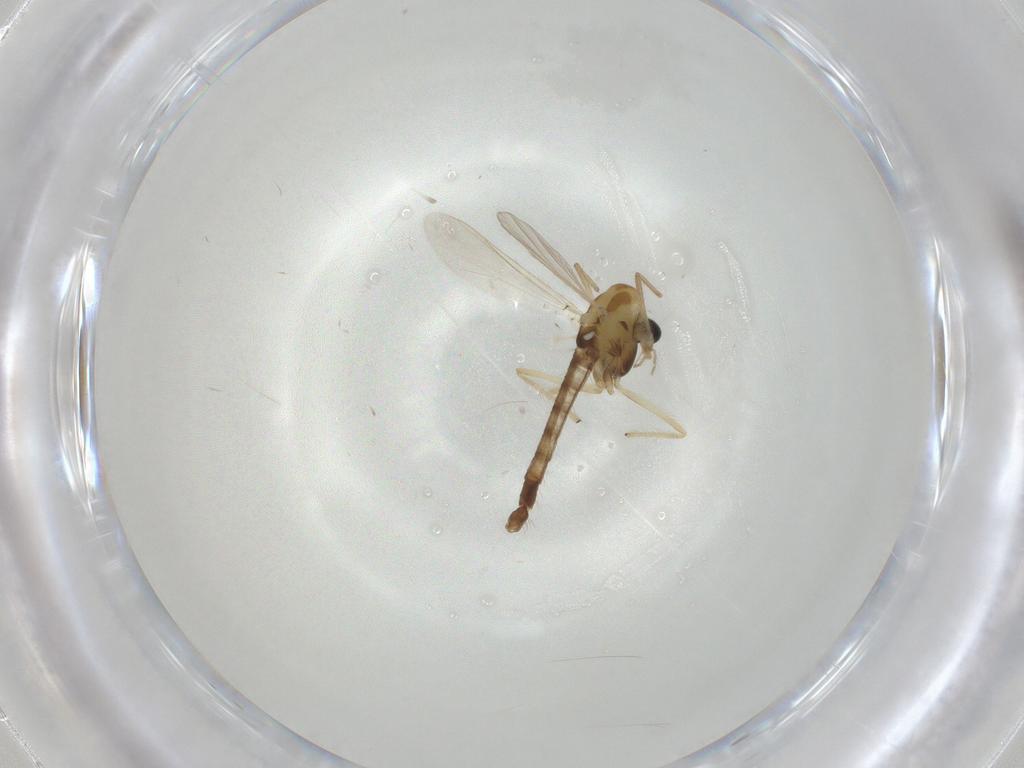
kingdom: Animalia
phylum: Arthropoda
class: Insecta
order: Diptera
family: Chironomidae
